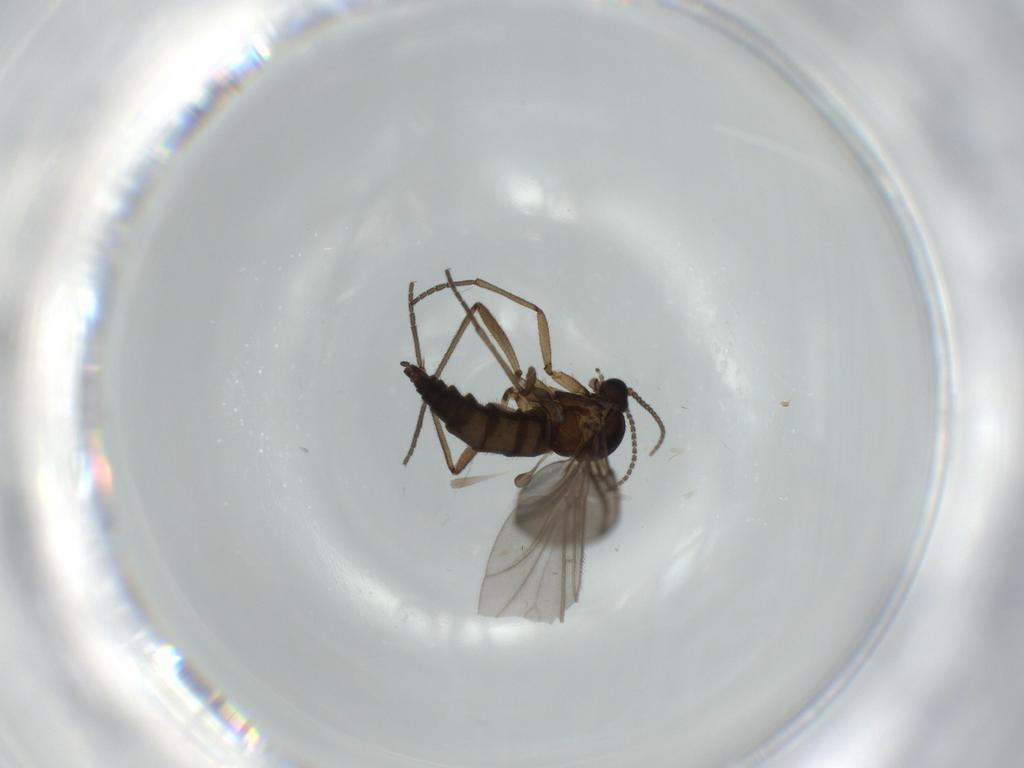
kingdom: Animalia
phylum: Arthropoda
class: Insecta
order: Diptera
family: Sciaridae
